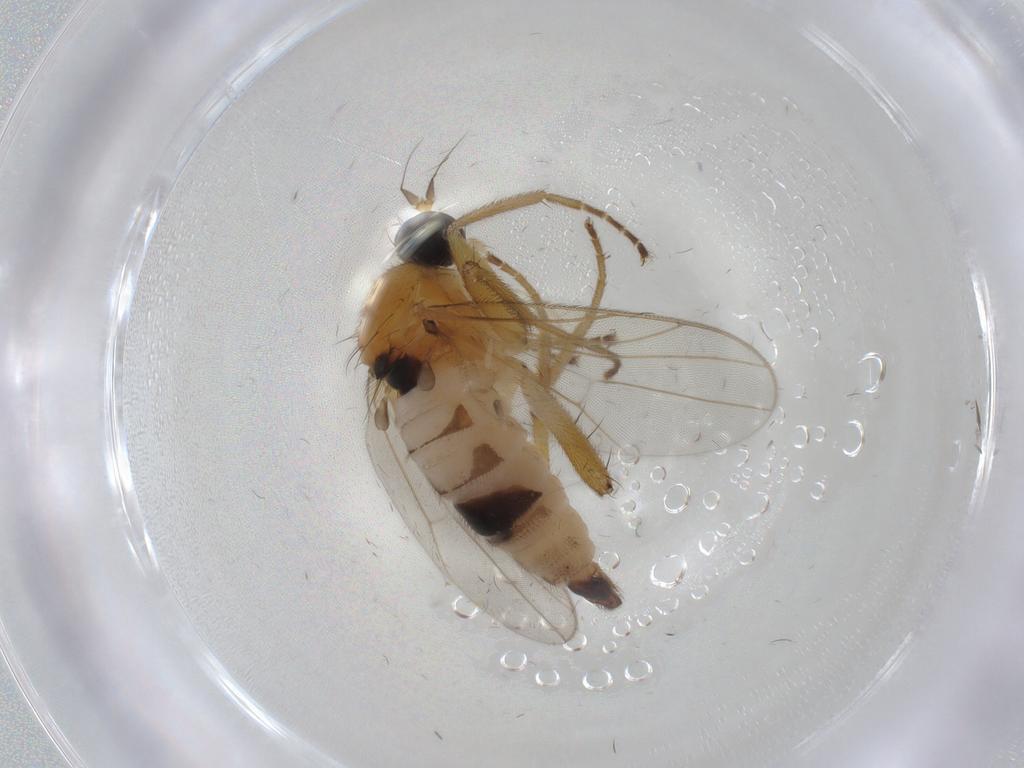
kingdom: Animalia
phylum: Arthropoda
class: Insecta
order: Diptera
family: Hybotidae
